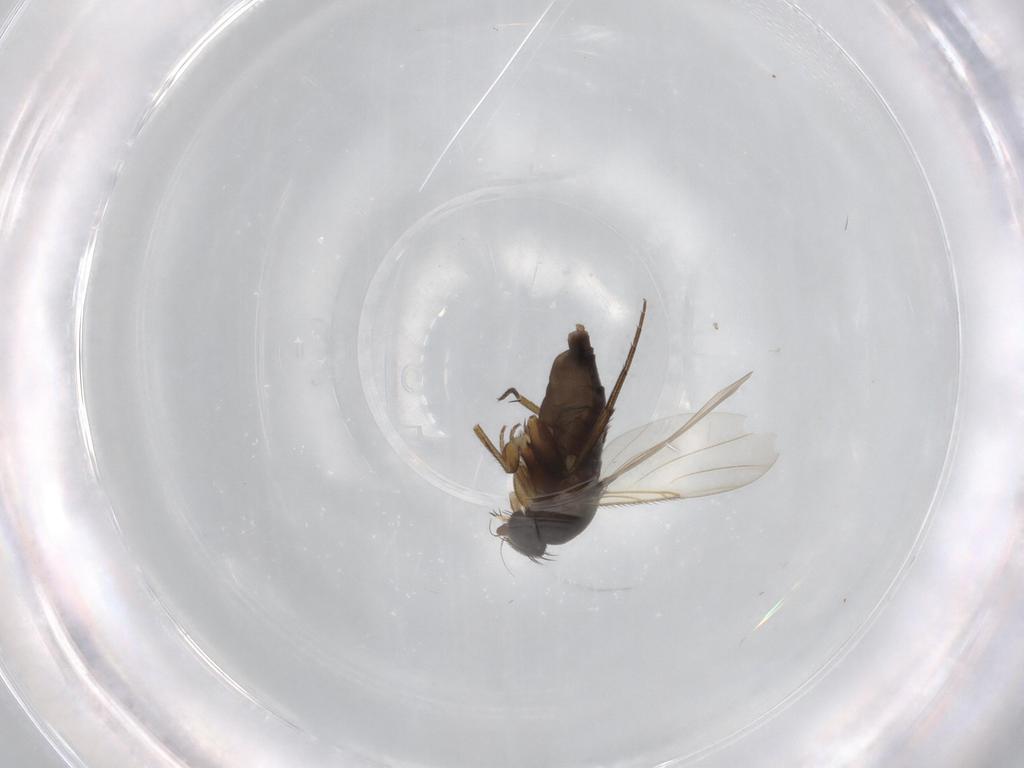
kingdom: Animalia
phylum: Arthropoda
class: Insecta
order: Diptera
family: Phoridae
